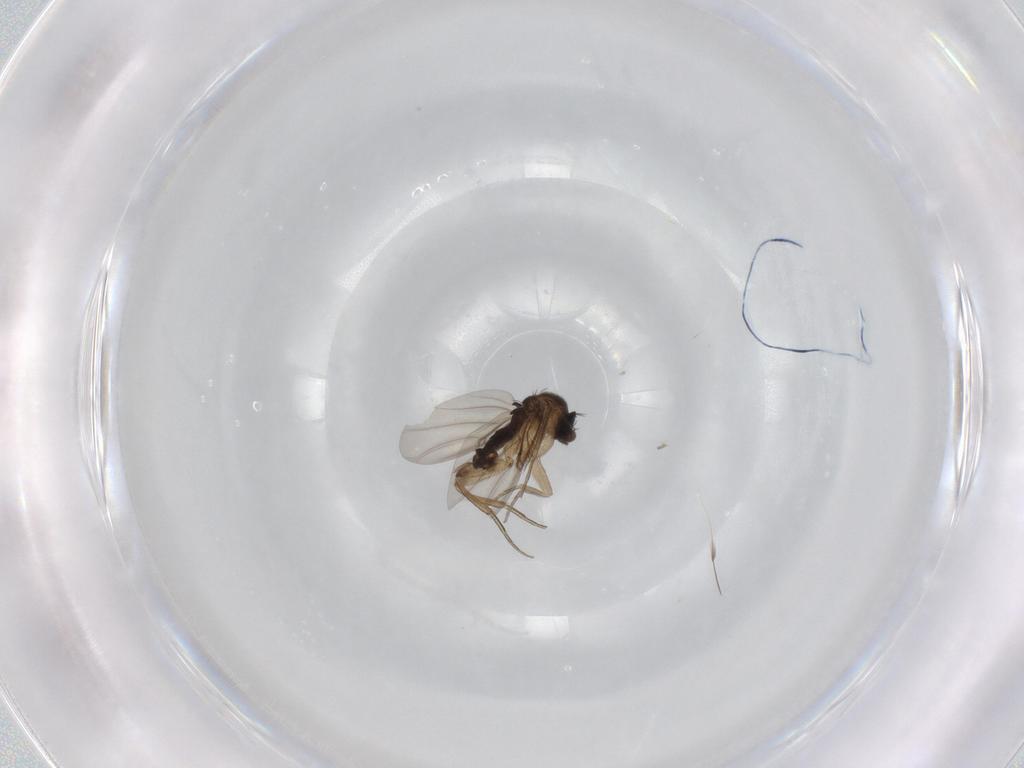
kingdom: Animalia
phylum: Arthropoda
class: Insecta
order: Diptera
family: Cecidomyiidae
